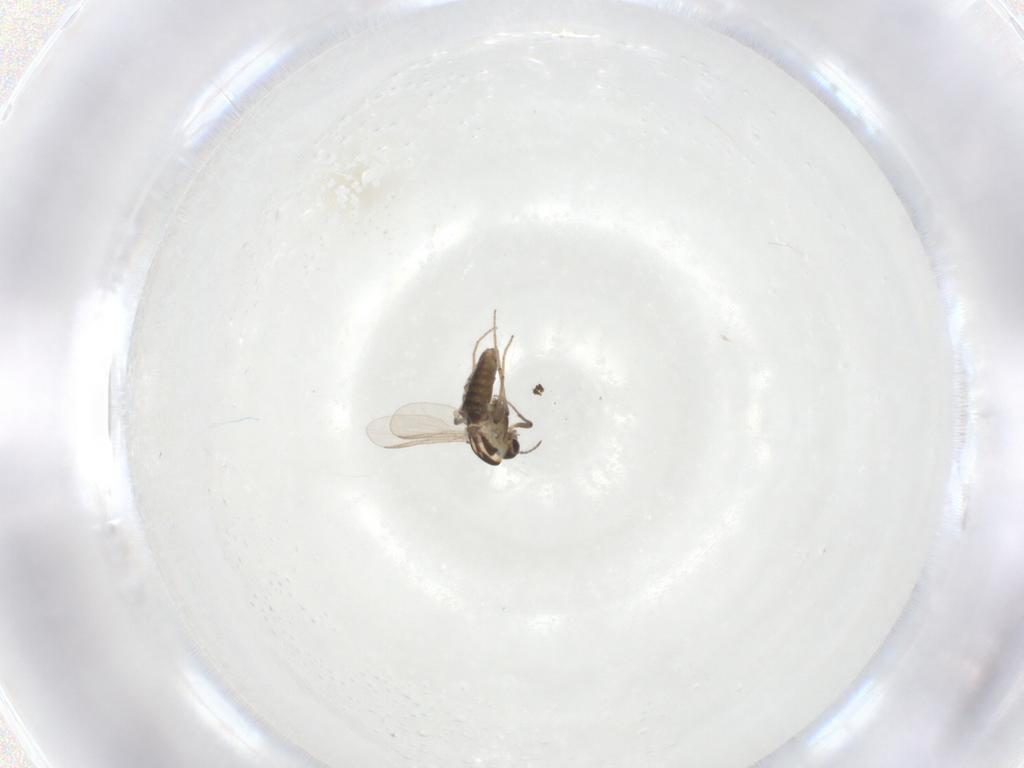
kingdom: Animalia
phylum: Arthropoda
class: Insecta
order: Diptera
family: Chironomidae
